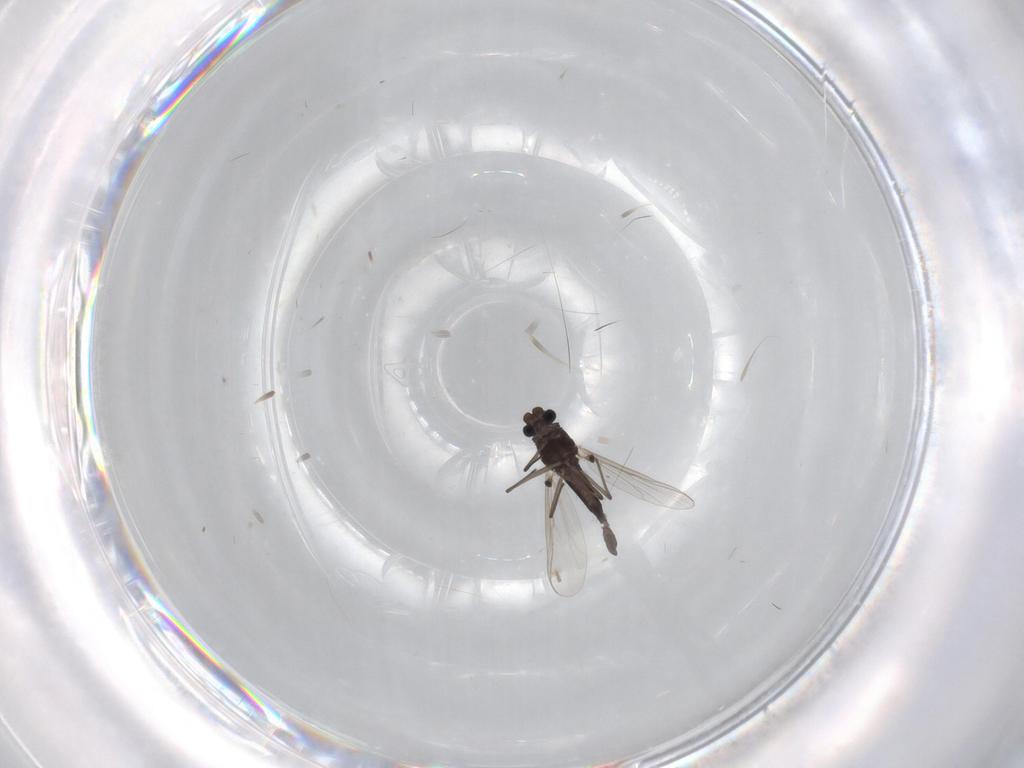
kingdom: Animalia
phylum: Arthropoda
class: Insecta
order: Diptera
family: Chironomidae
